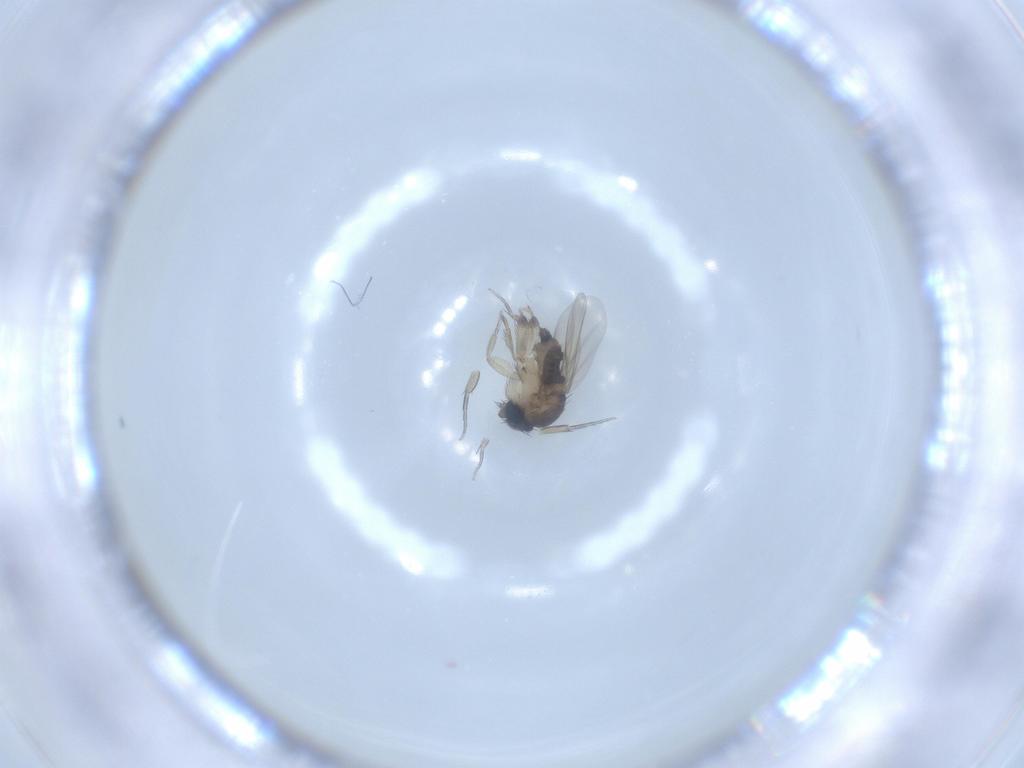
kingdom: Animalia
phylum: Arthropoda
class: Insecta
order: Diptera
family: Phoridae
